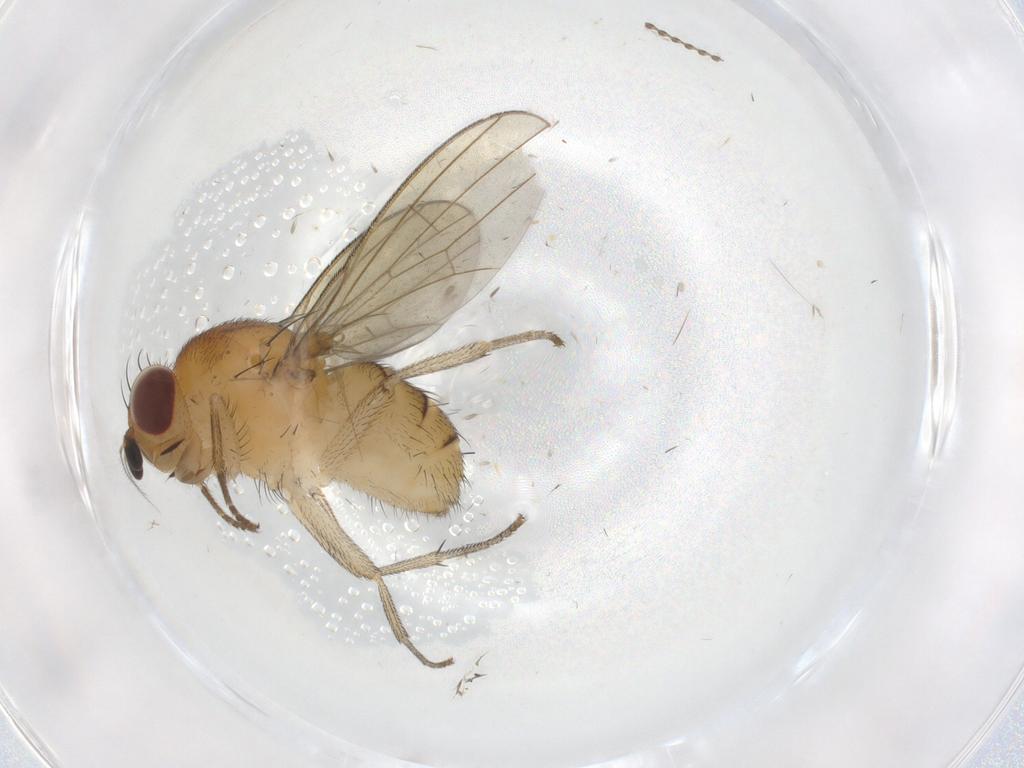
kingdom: Animalia
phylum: Arthropoda
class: Insecta
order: Diptera
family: Lauxaniidae
